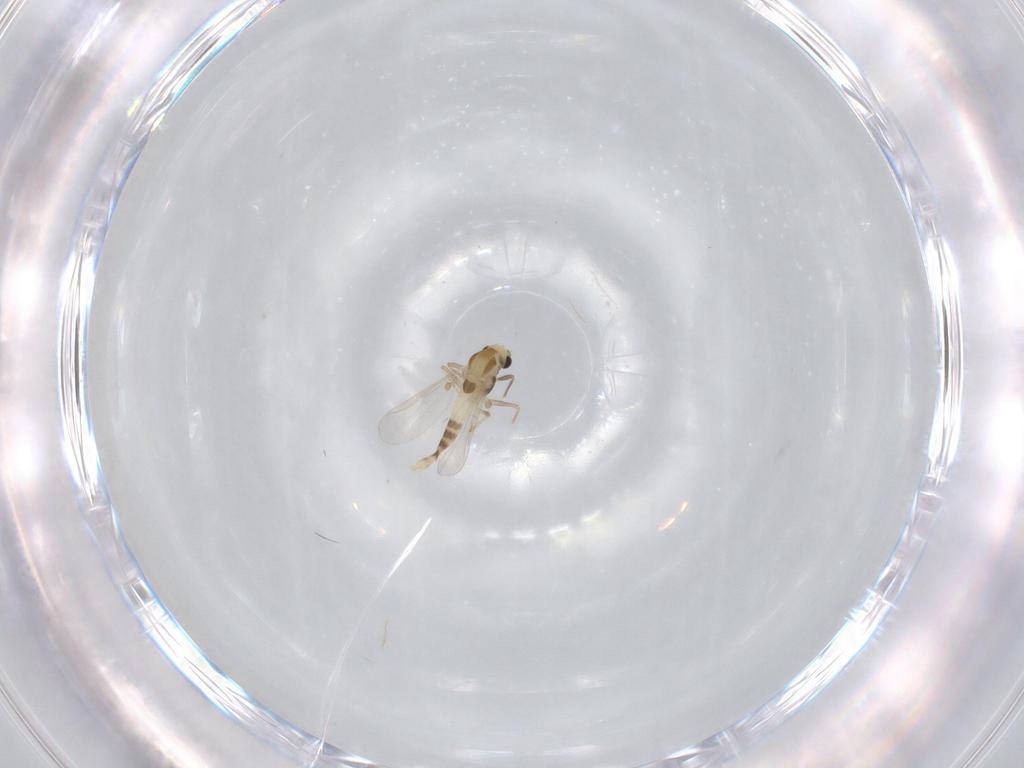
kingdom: Animalia
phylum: Arthropoda
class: Insecta
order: Diptera
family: Chironomidae
